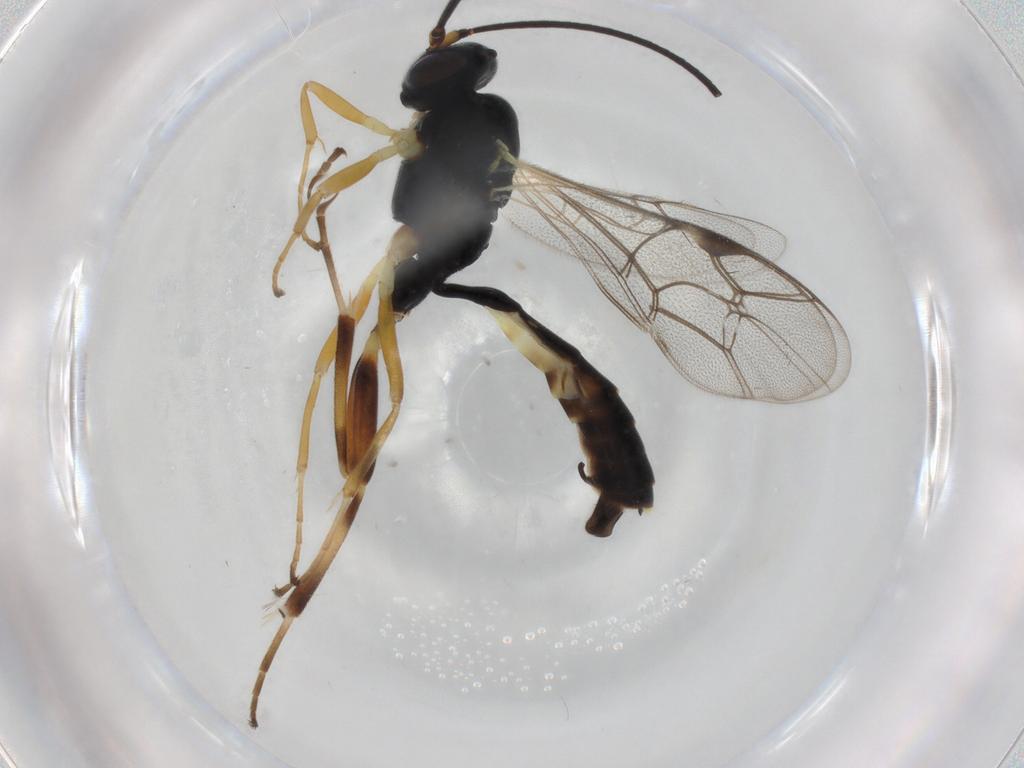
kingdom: Animalia
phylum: Arthropoda
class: Insecta
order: Hymenoptera
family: Ichneumonidae
